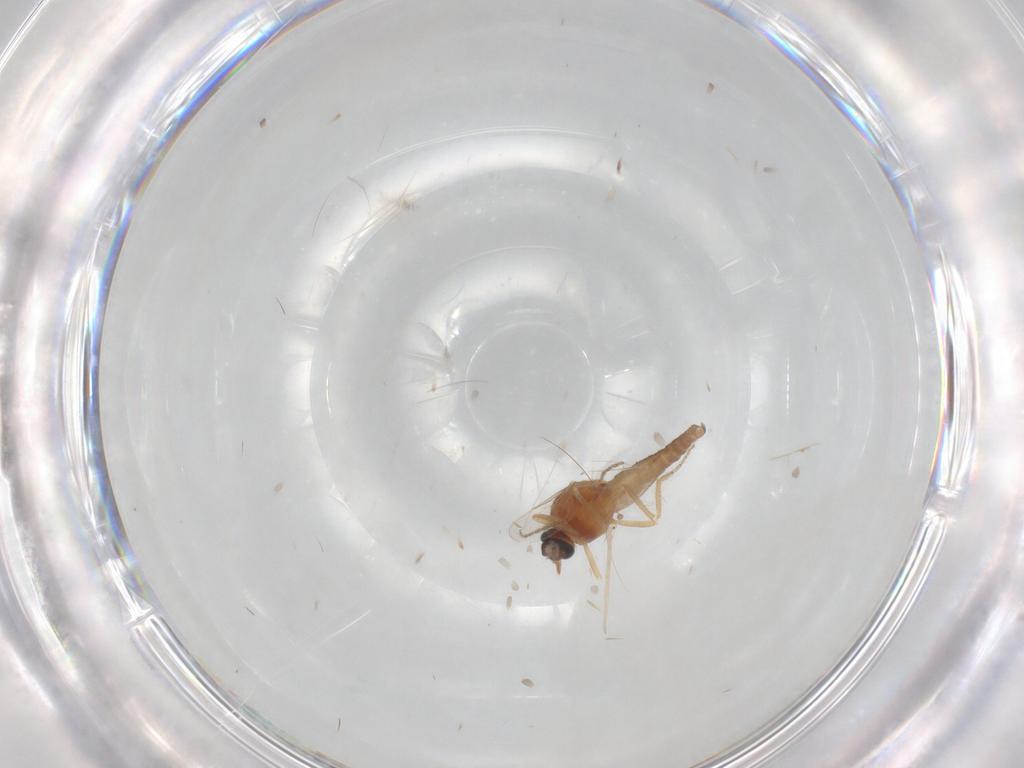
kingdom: Animalia
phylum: Arthropoda
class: Insecta
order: Diptera
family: Ceratopogonidae
